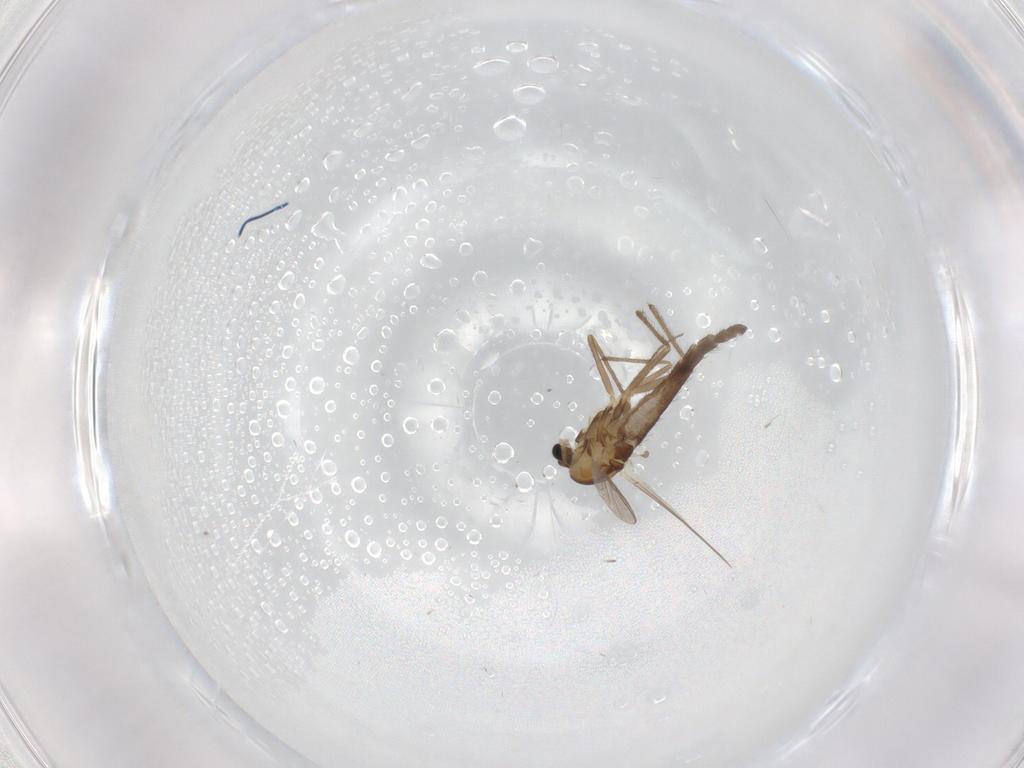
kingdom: Animalia
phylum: Arthropoda
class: Insecta
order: Diptera
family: Chironomidae
